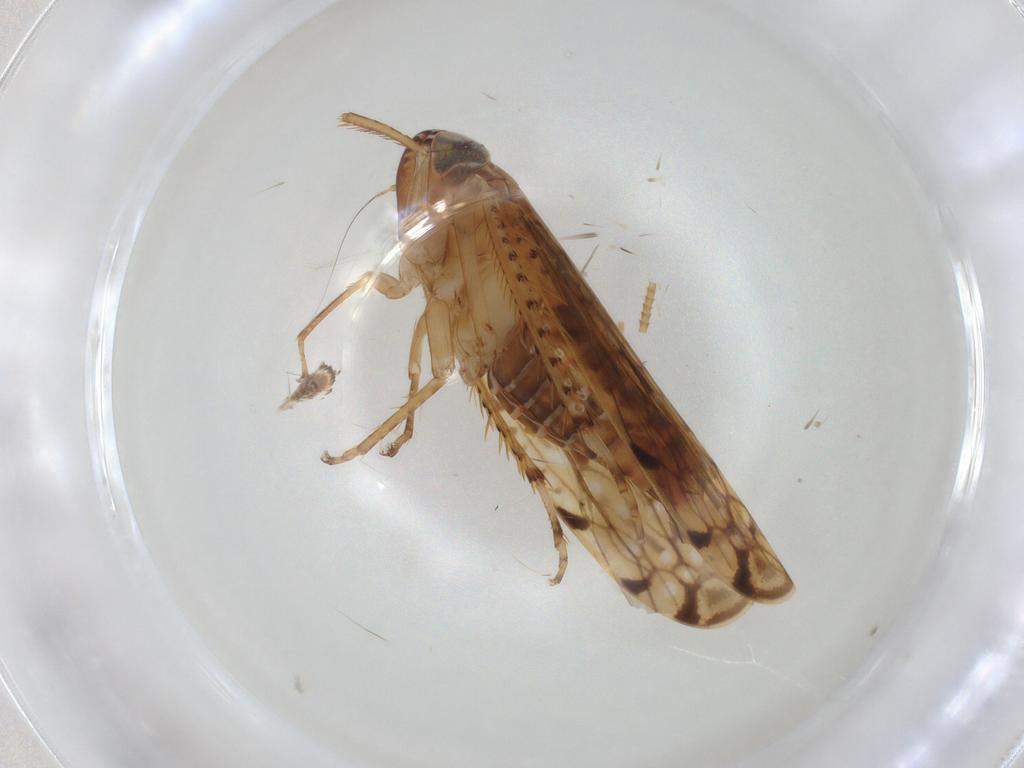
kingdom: Animalia
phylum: Arthropoda
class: Insecta
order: Hemiptera
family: Cicadellidae
